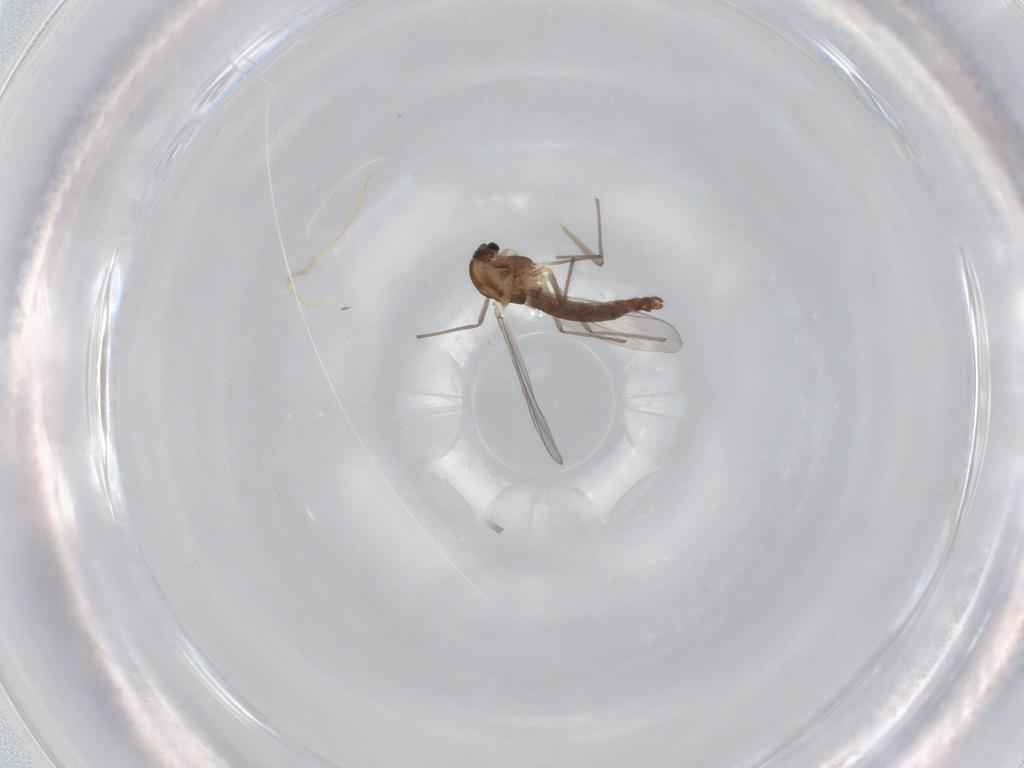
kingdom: Animalia
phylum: Arthropoda
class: Insecta
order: Diptera
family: Chironomidae
